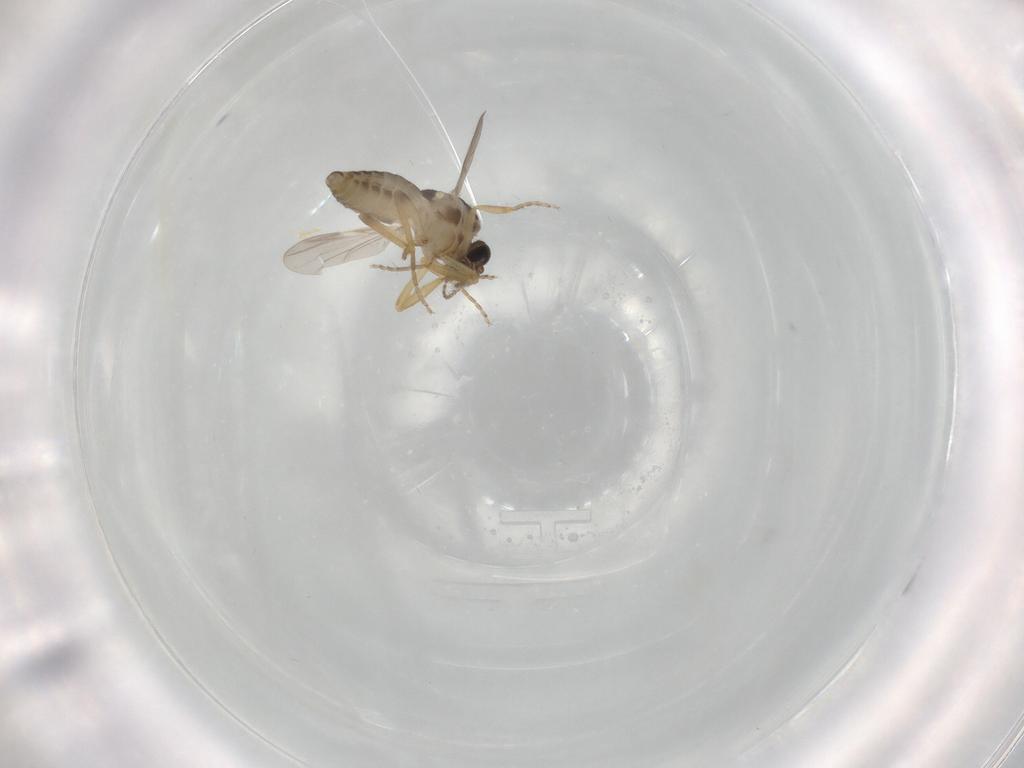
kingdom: Animalia
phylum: Arthropoda
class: Insecta
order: Diptera
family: Ceratopogonidae
